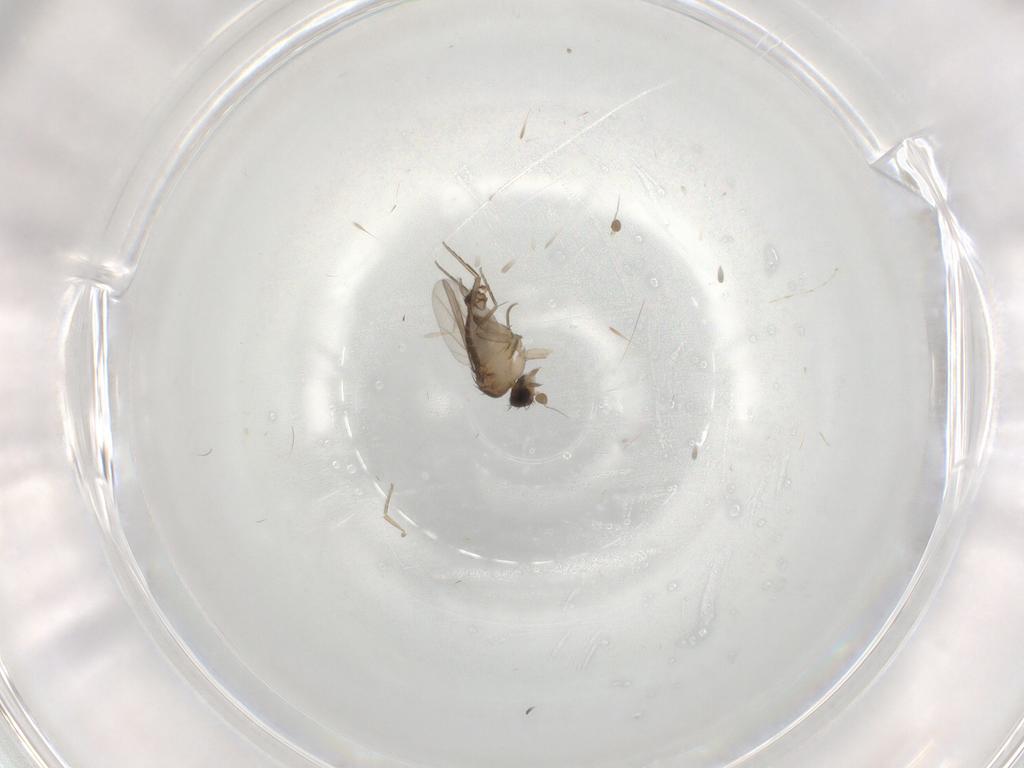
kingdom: Animalia
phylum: Arthropoda
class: Insecta
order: Diptera
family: Phoridae
